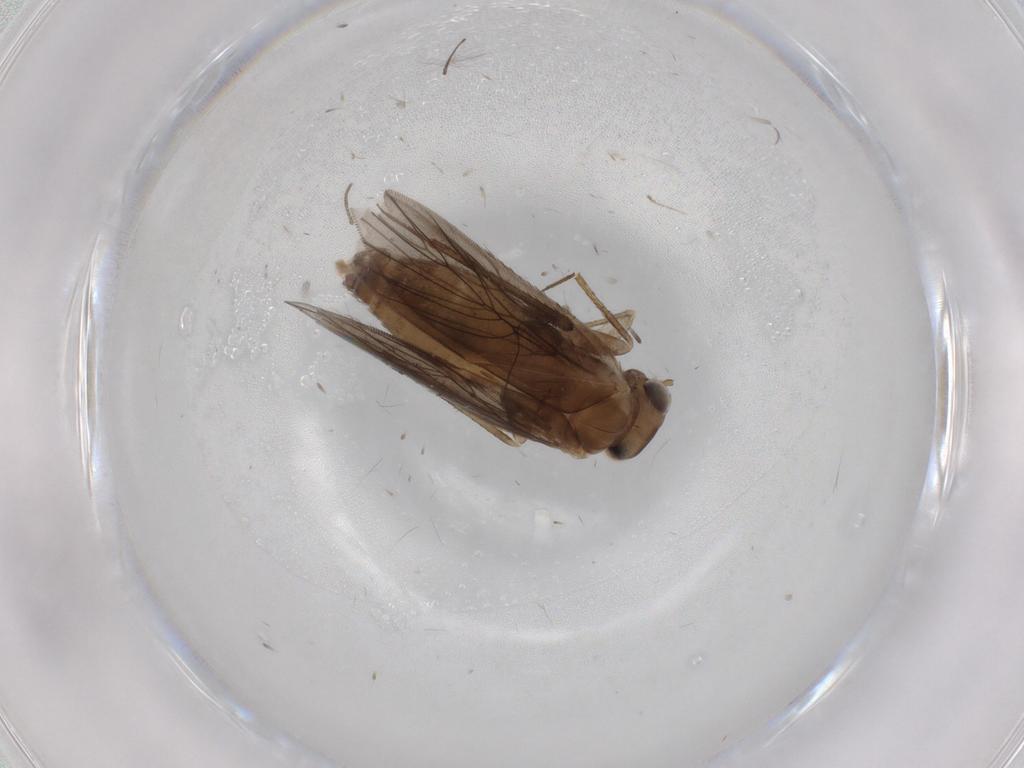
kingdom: Animalia
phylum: Arthropoda
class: Insecta
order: Psocodea
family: Lepidopsocidae
